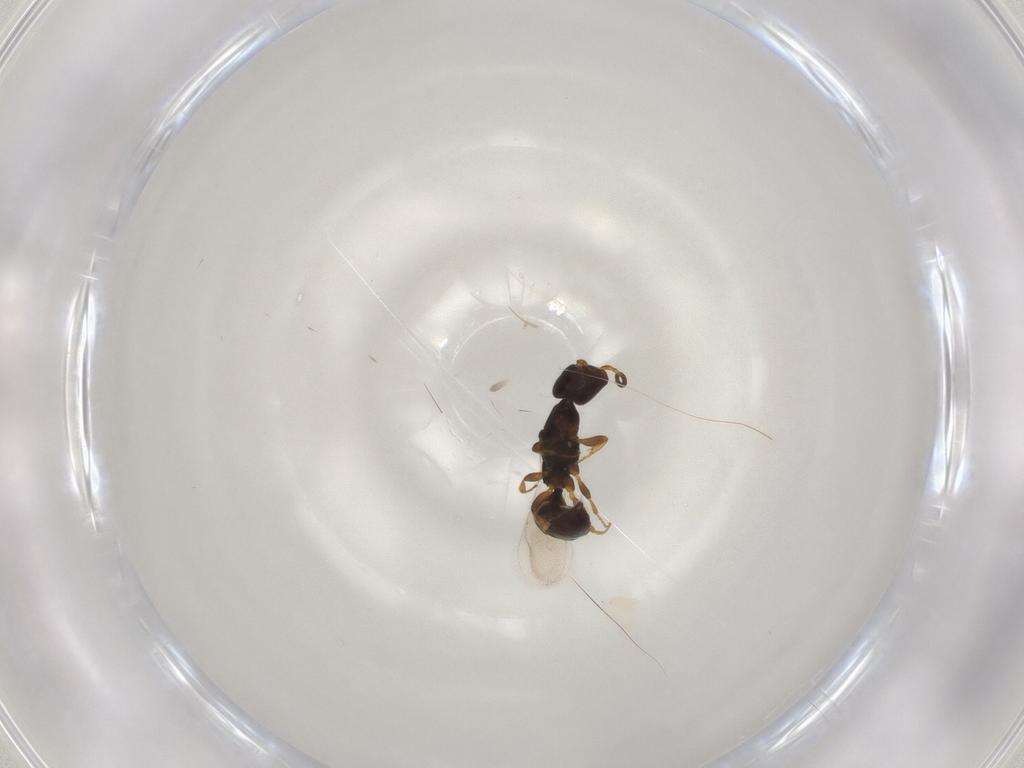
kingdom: Animalia
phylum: Arthropoda
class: Insecta
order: Hymenoptera
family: Bethylidae
